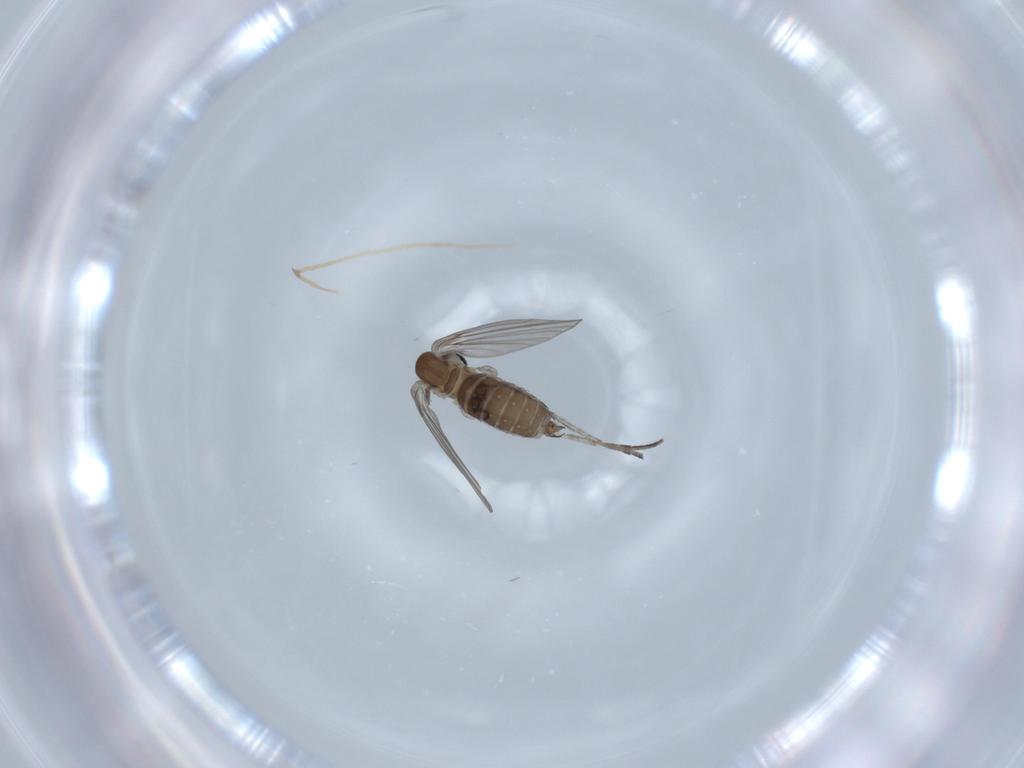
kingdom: Animalia
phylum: Arthropoda
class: Insecta
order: Diptera
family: Psychodidae
